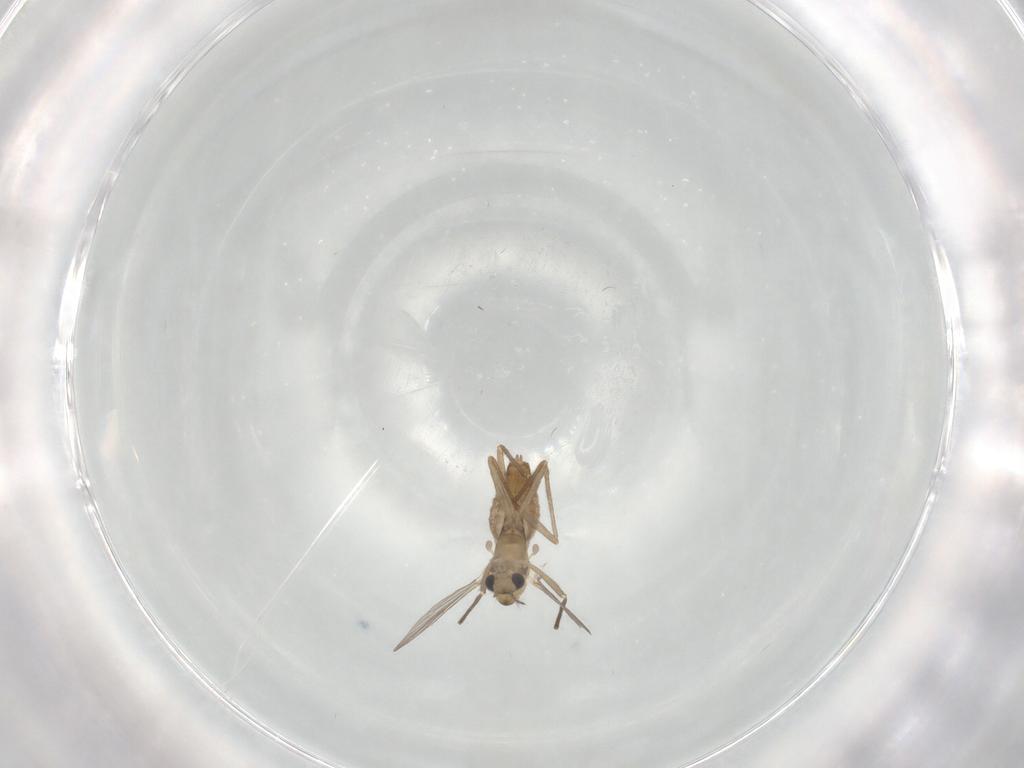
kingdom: Animalia
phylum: Arthropoda
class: Insecta
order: Diptera
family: Chironomidae
